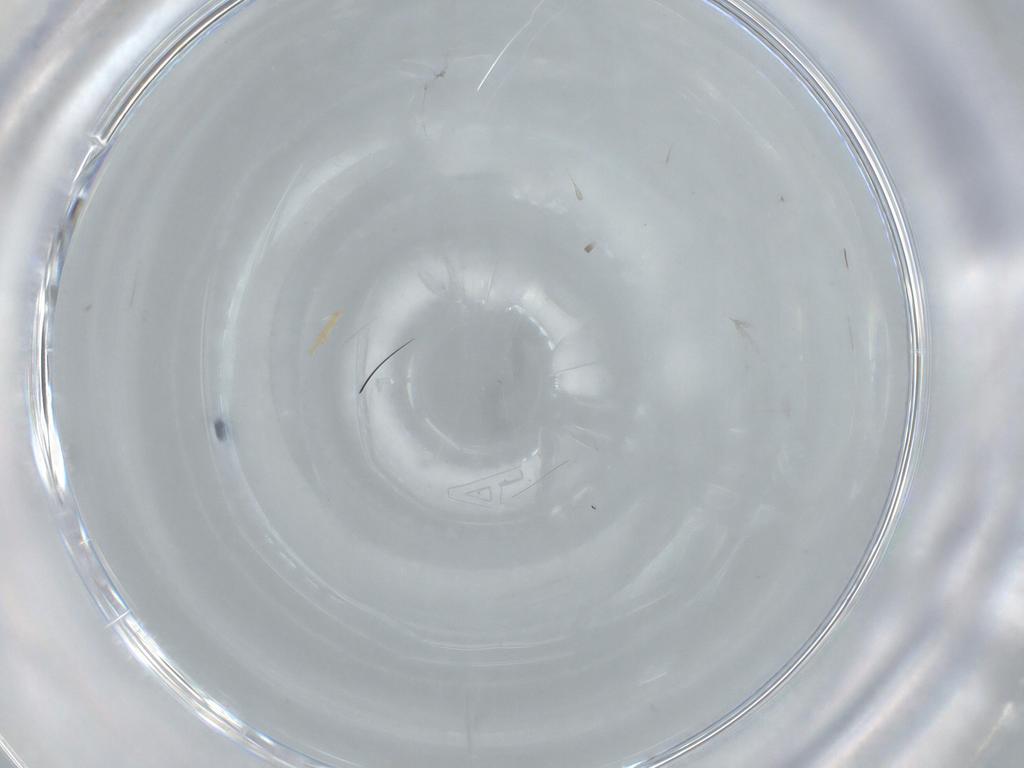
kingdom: Animalia
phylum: Arthropoda
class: Insecta
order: Hymenoptera
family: Aphelinidae
